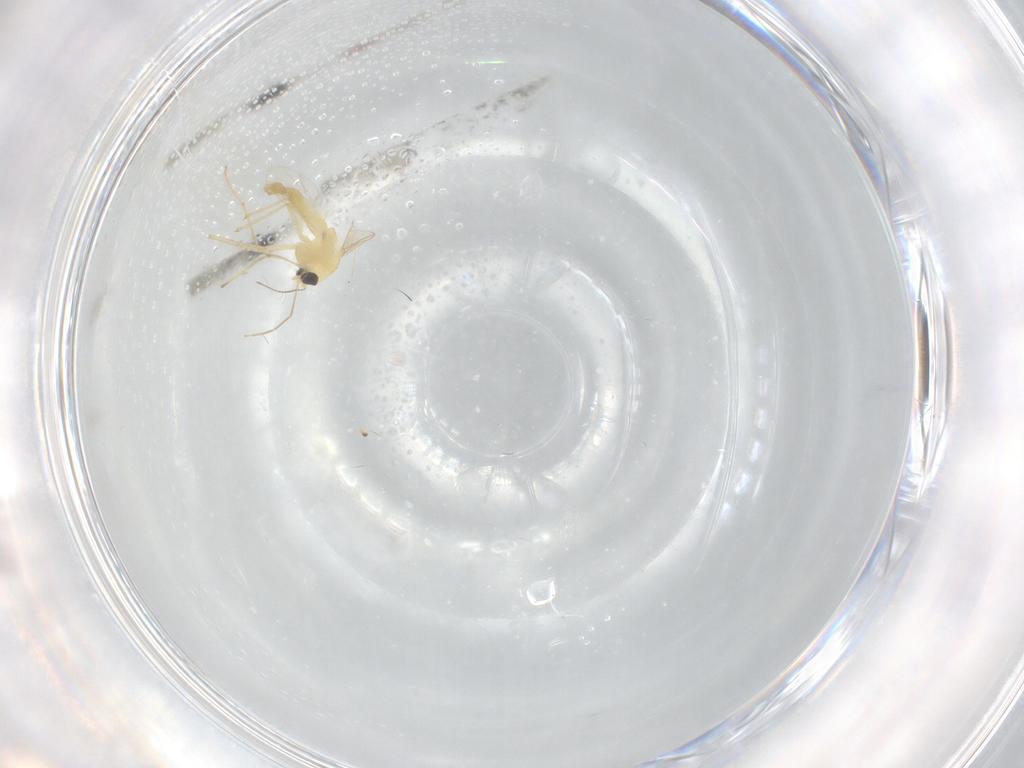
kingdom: Animalia
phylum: Arthropoda
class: Insecta
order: Diptera
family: Chironomidae
